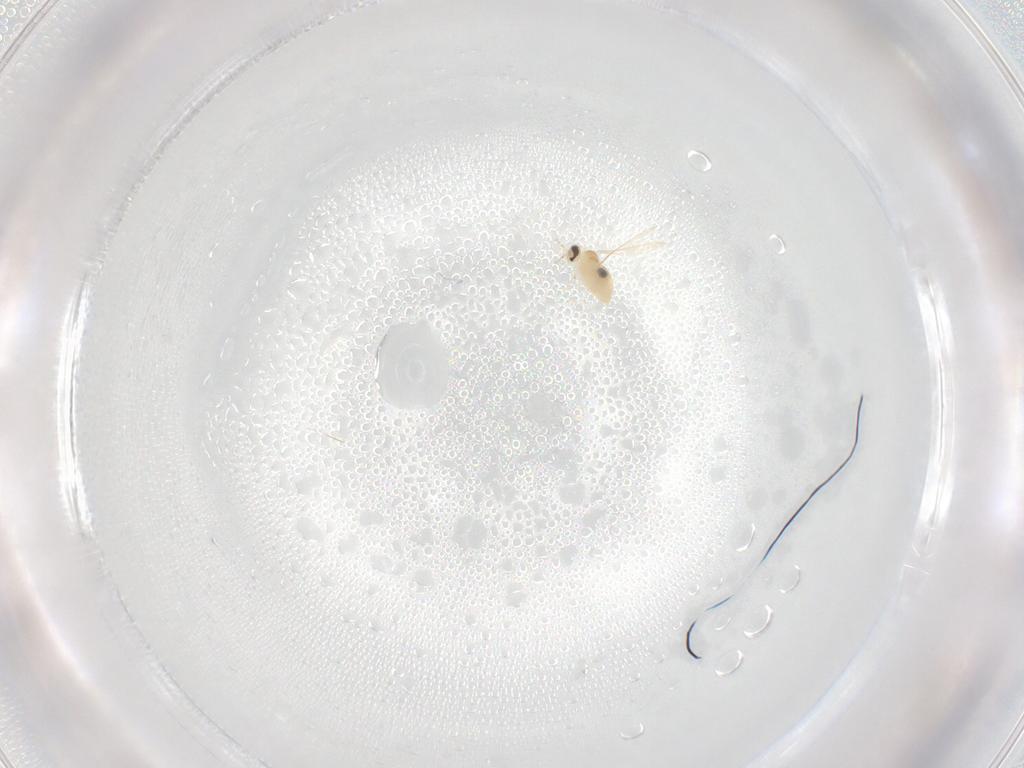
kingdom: Animalia
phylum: Arthropoda
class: Insecta
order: Diptera
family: Cecidomyiidae
